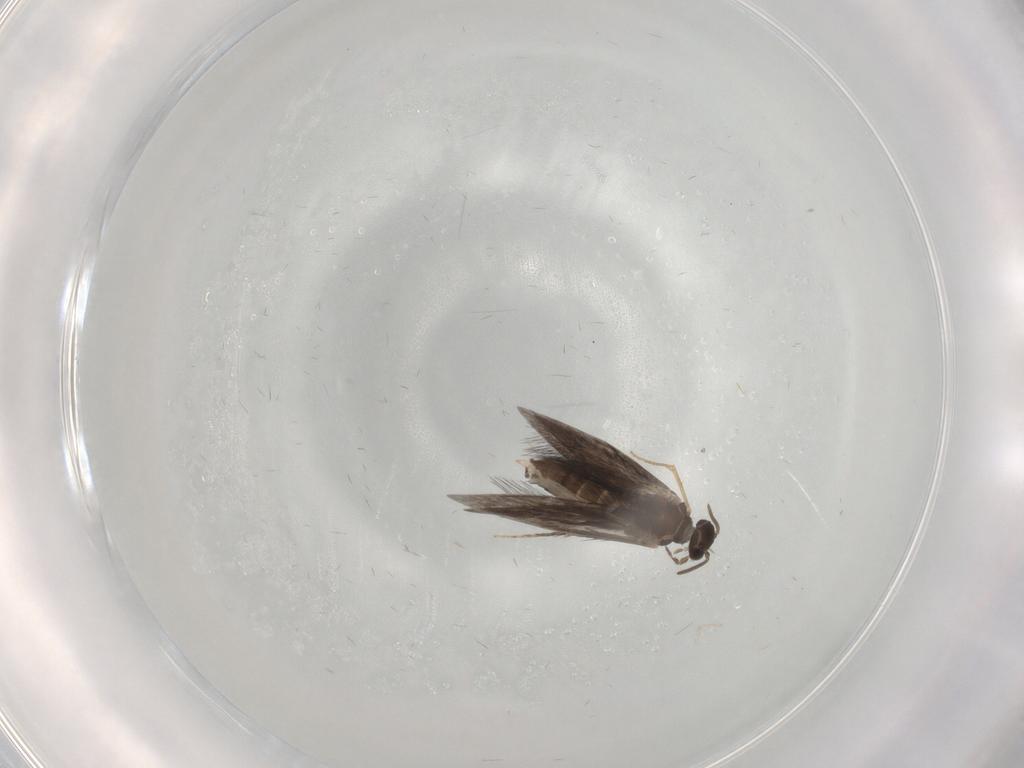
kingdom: Animalia
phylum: Arthropoda
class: Insecta
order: Trichoptera
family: Hydroptilidae
